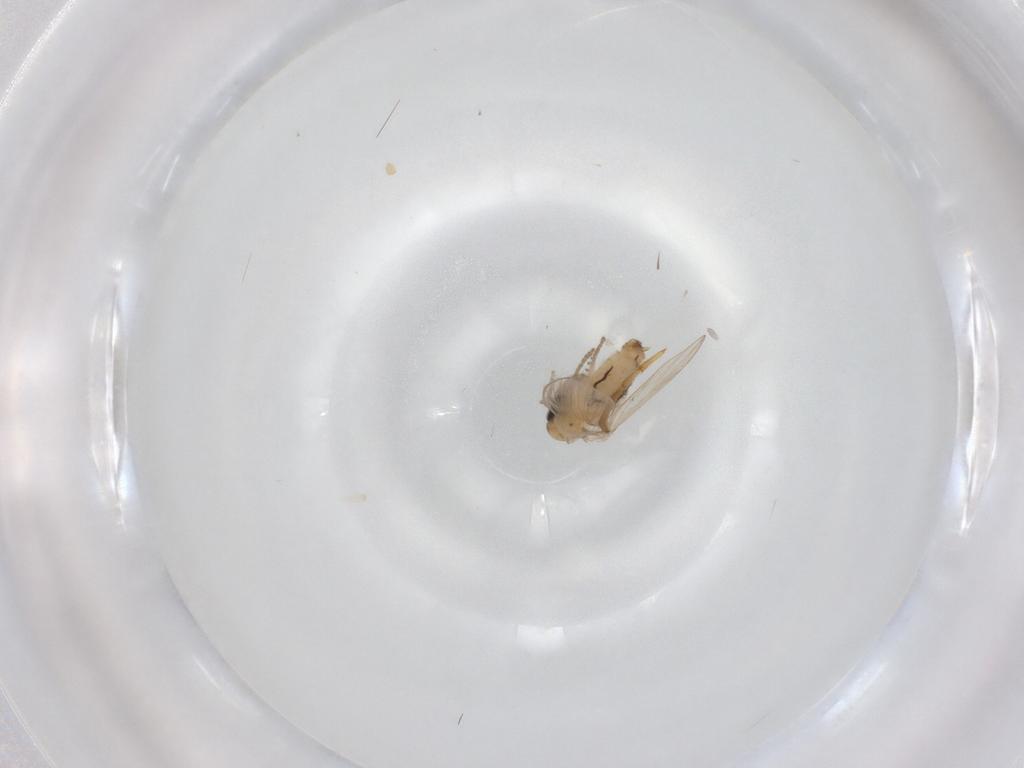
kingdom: Animalia
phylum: Arthropoda
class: Insecta
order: Diptera
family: Psychodidae
